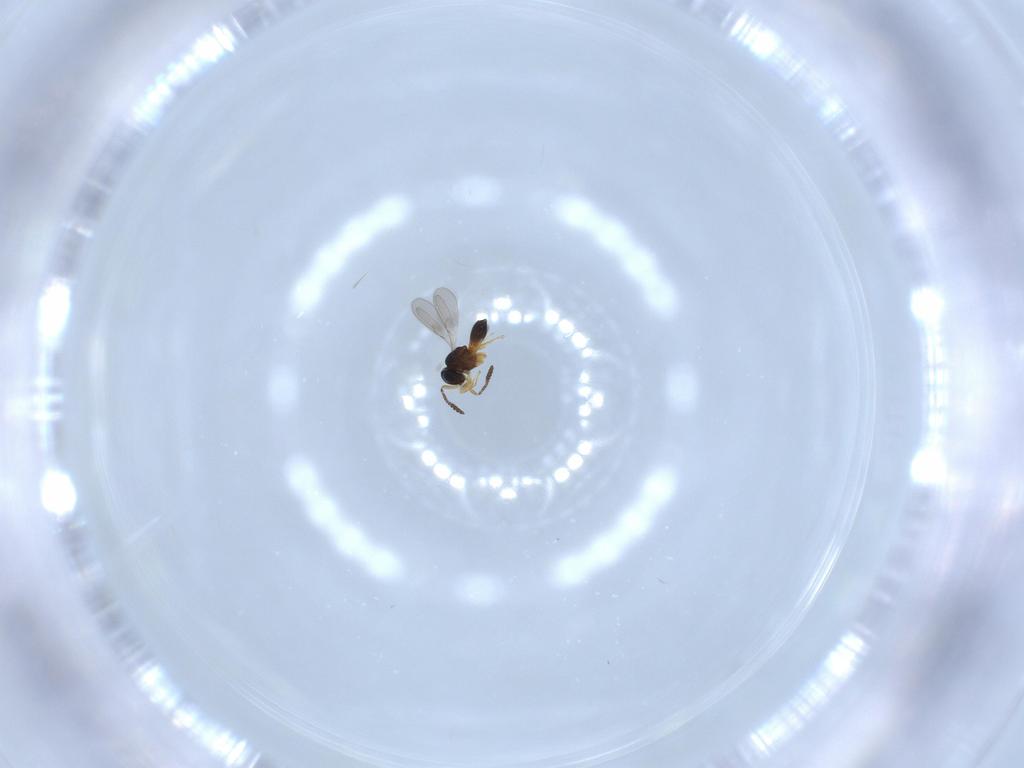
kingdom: Animalia
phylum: Arthropoda
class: Insecta
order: Hymenoptera
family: Scelionidae
